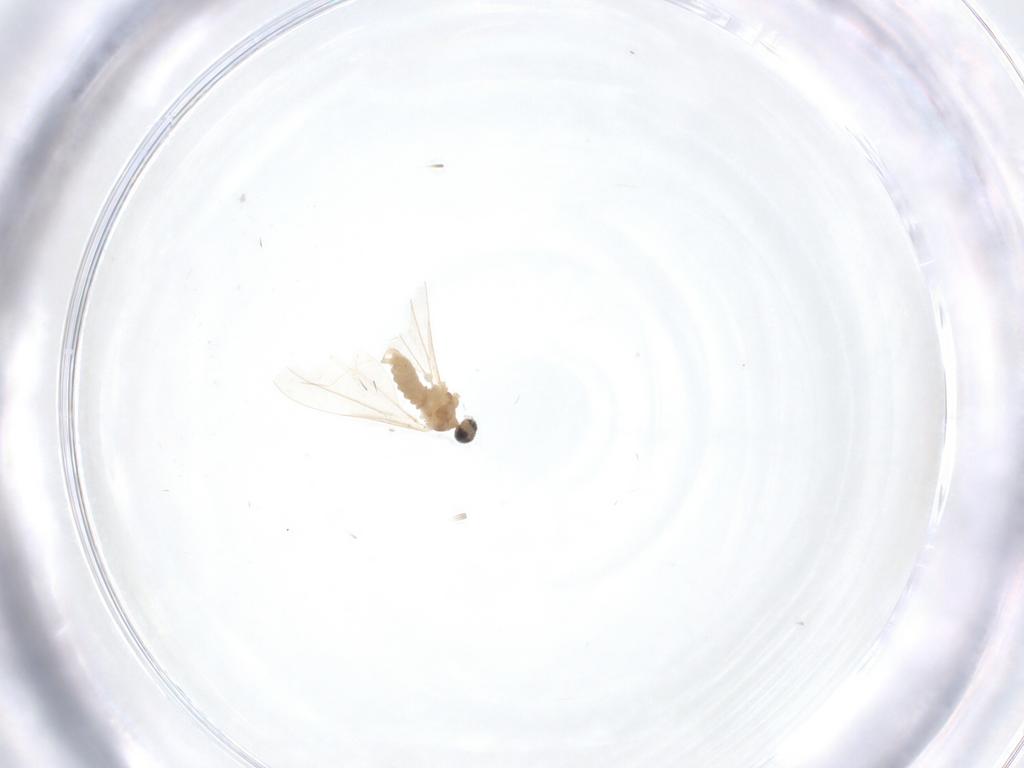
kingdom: Animalia
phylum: Arthropoda
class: Insecta
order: Diptera
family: Cecidomyiidae
